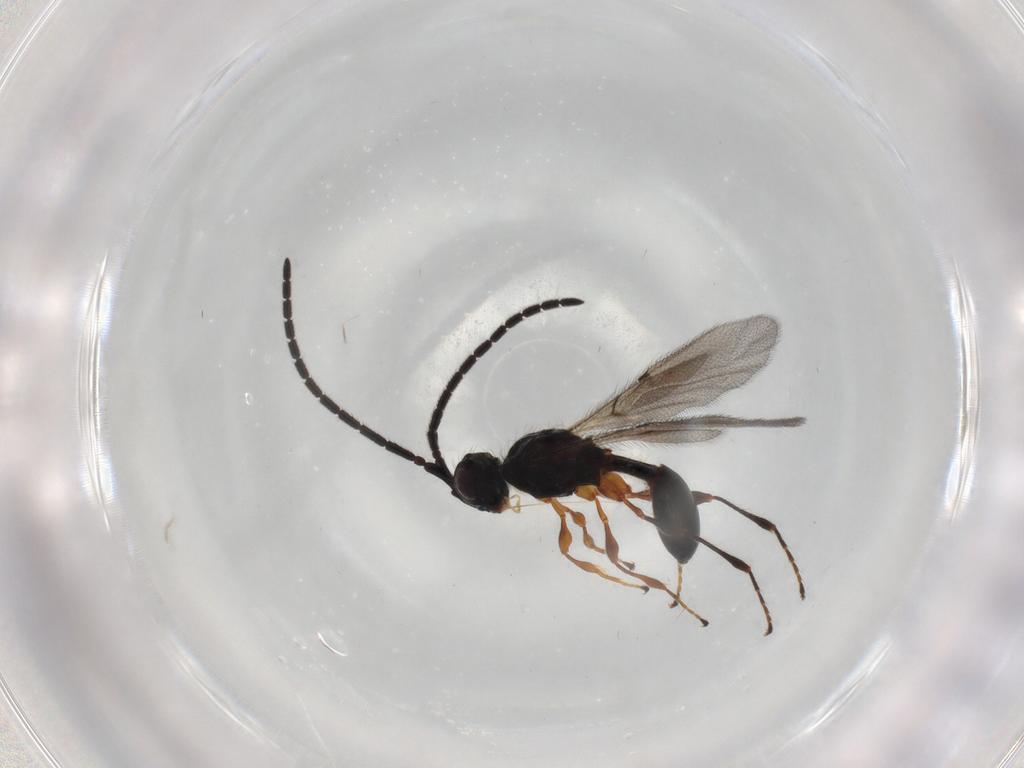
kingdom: Animalia
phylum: Arthropoda
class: Insecta
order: Hymenoptera
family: Diapriidae
